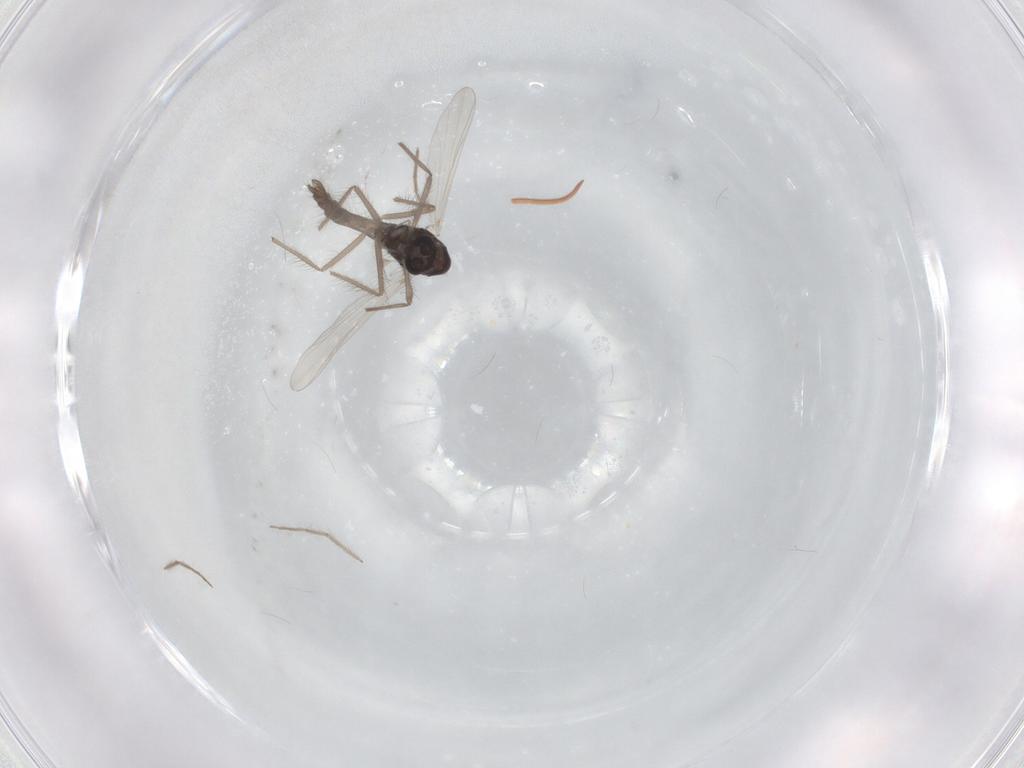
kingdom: Animalia
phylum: Arthropoda
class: Insecta
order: Diptera
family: Chironomidae
